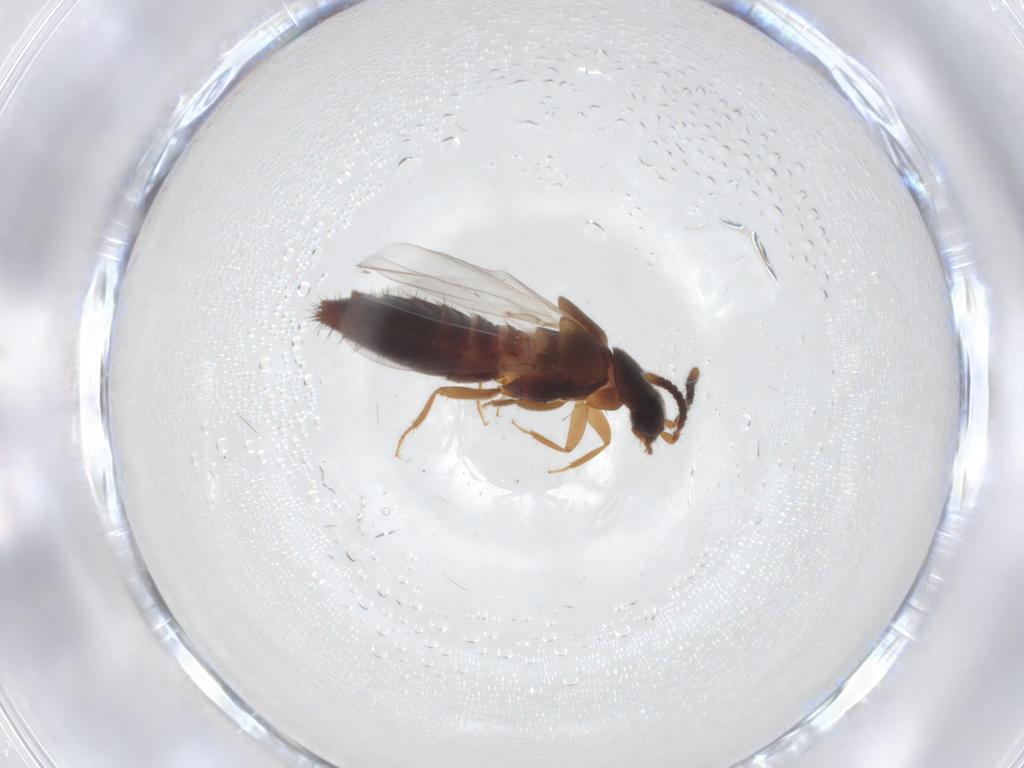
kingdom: Animalia
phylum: Arthropoda
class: Insecta
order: Coleoptera
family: Staphylinidae
